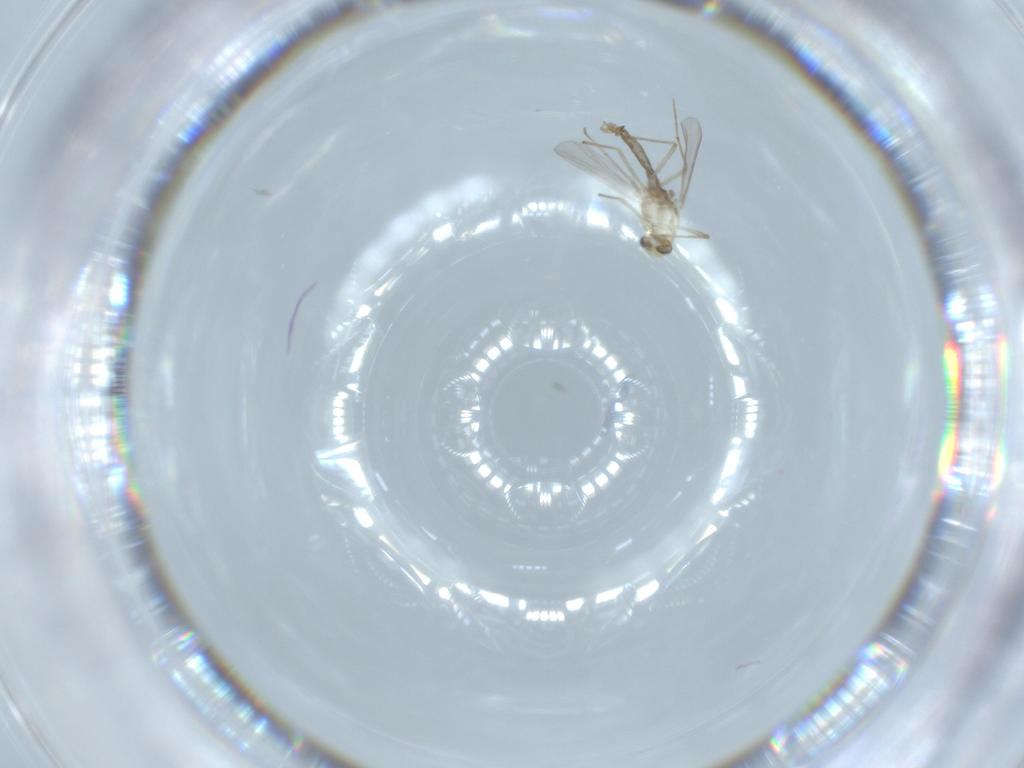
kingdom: Animalia
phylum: Arthropoda
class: Insecta
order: Diptera
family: Chironomidae
